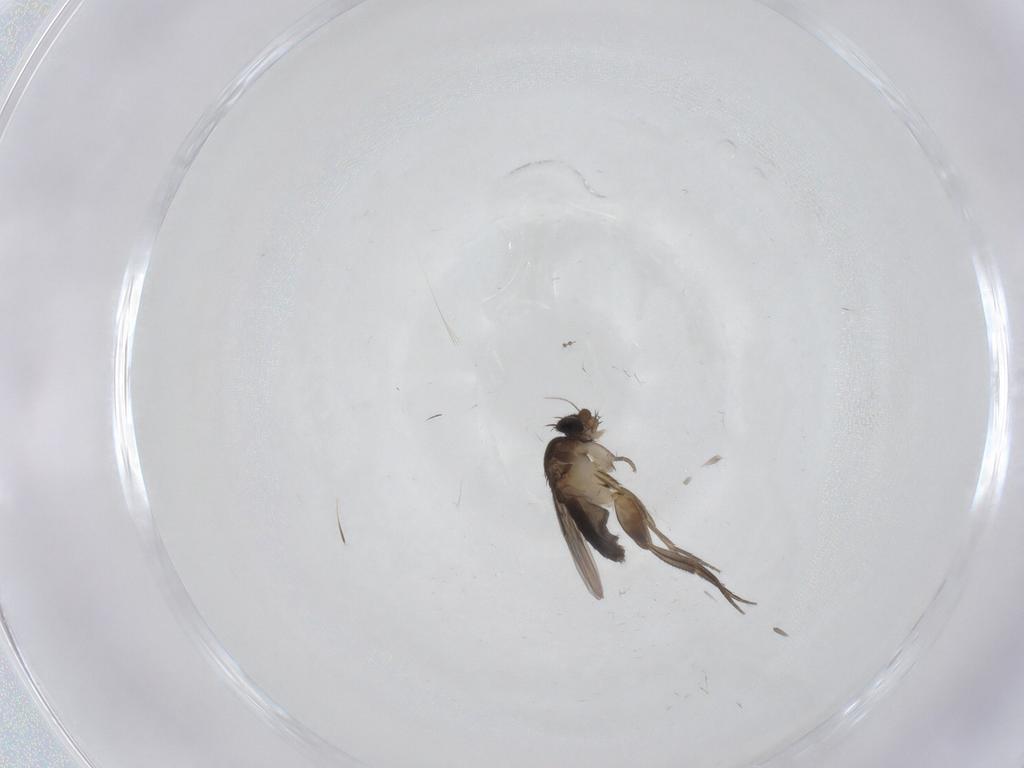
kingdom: Animalia
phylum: Arthropoda
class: Insecta
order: Diptera
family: Phoridae
